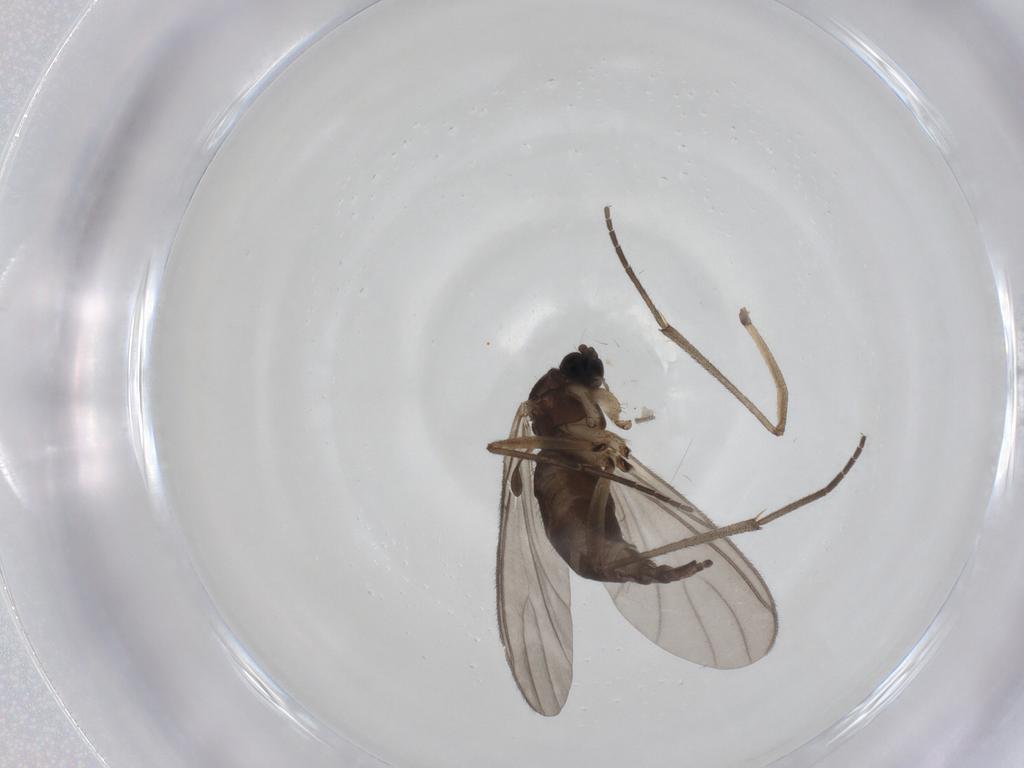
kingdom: Animalia
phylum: Arthropoda
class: Insecta
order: Diptera
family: Sciaridae
